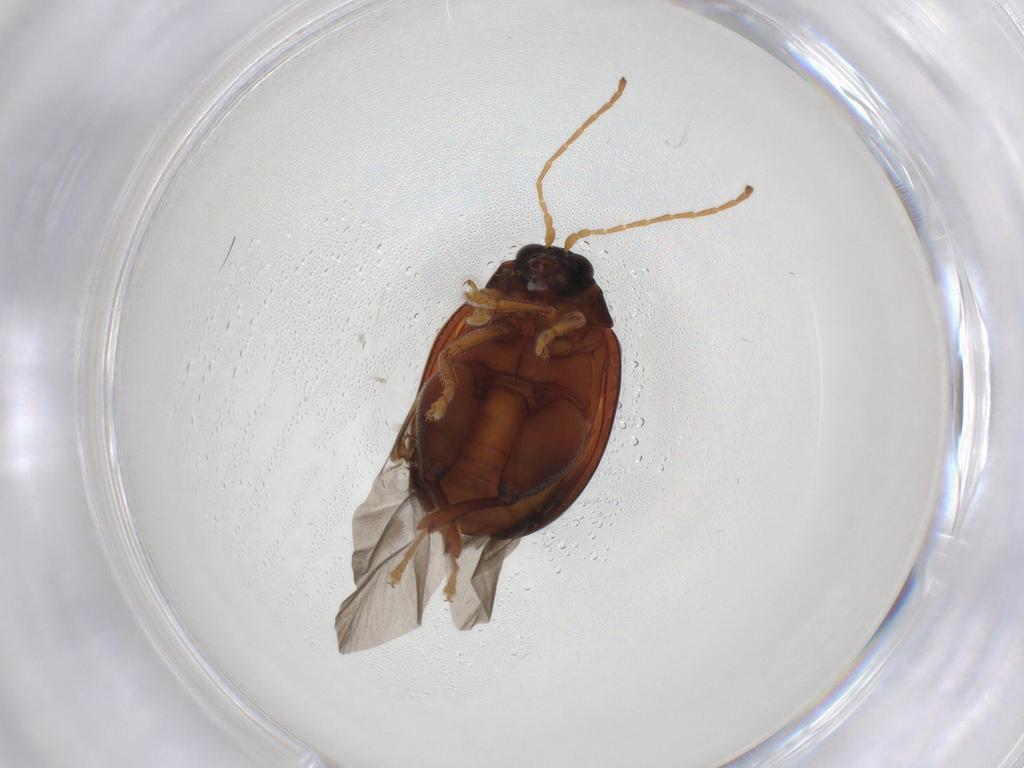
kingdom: Animalia
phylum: Arthropoda
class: Insecta
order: Coleoptera
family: Chrysomelidae
